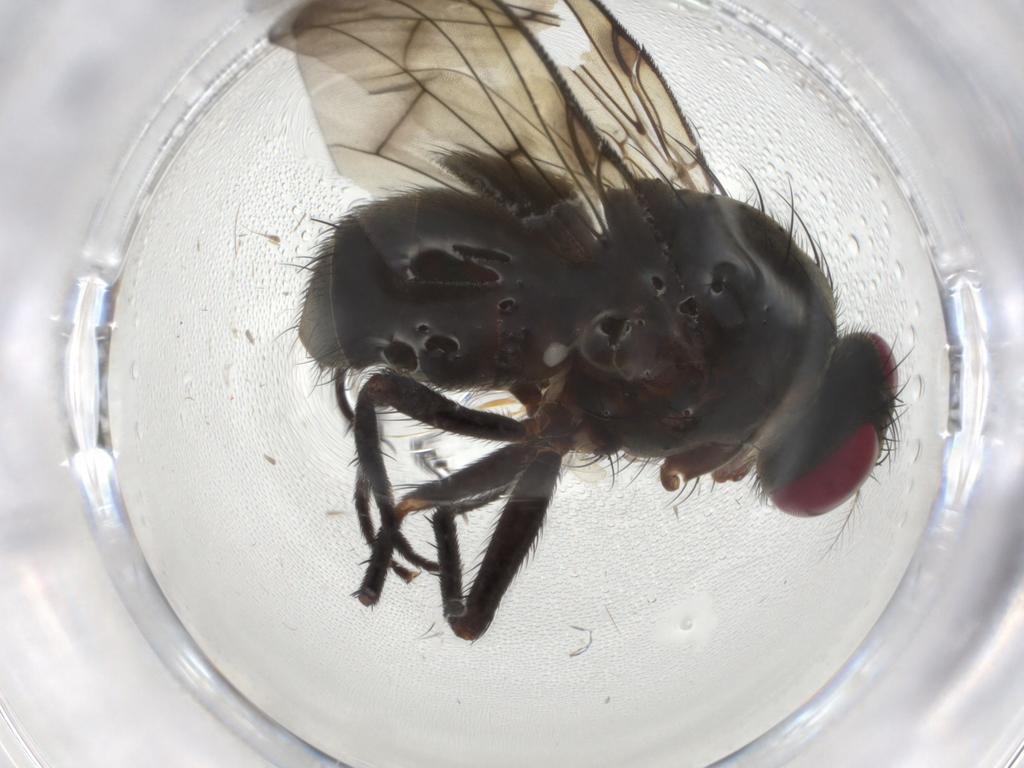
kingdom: Animalia
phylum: Arthropoda
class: Insecta
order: Diptera
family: Muscidae
